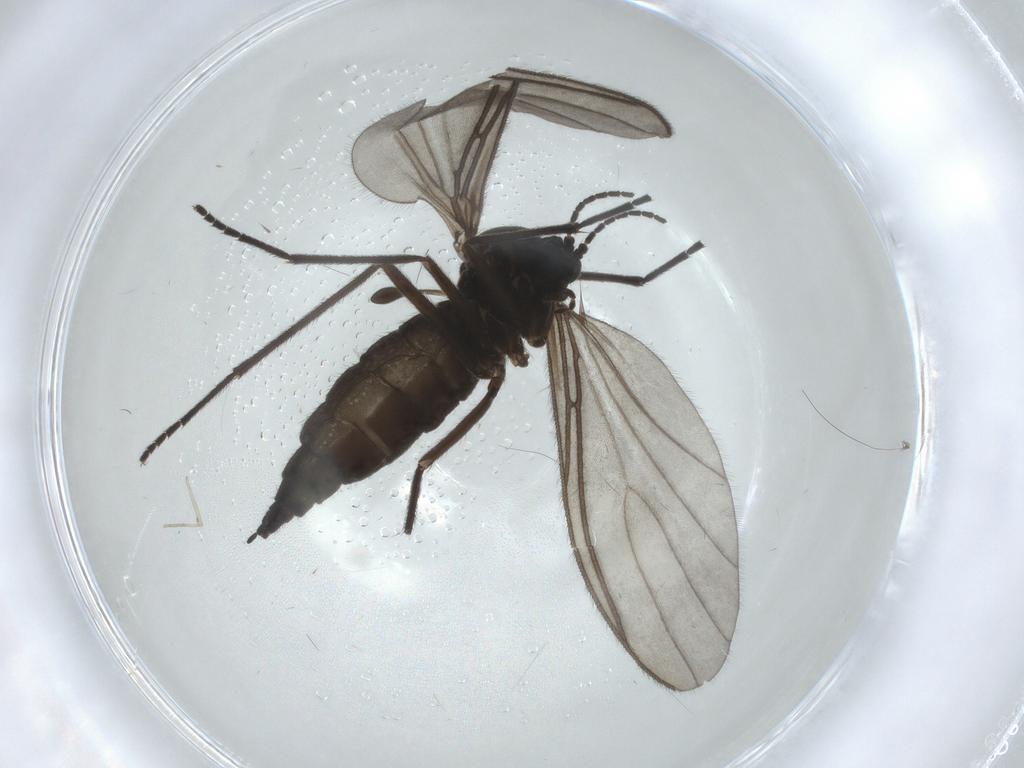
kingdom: Animalia
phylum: Arthropoda
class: Insecta
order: Diptera
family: Sciaridae
